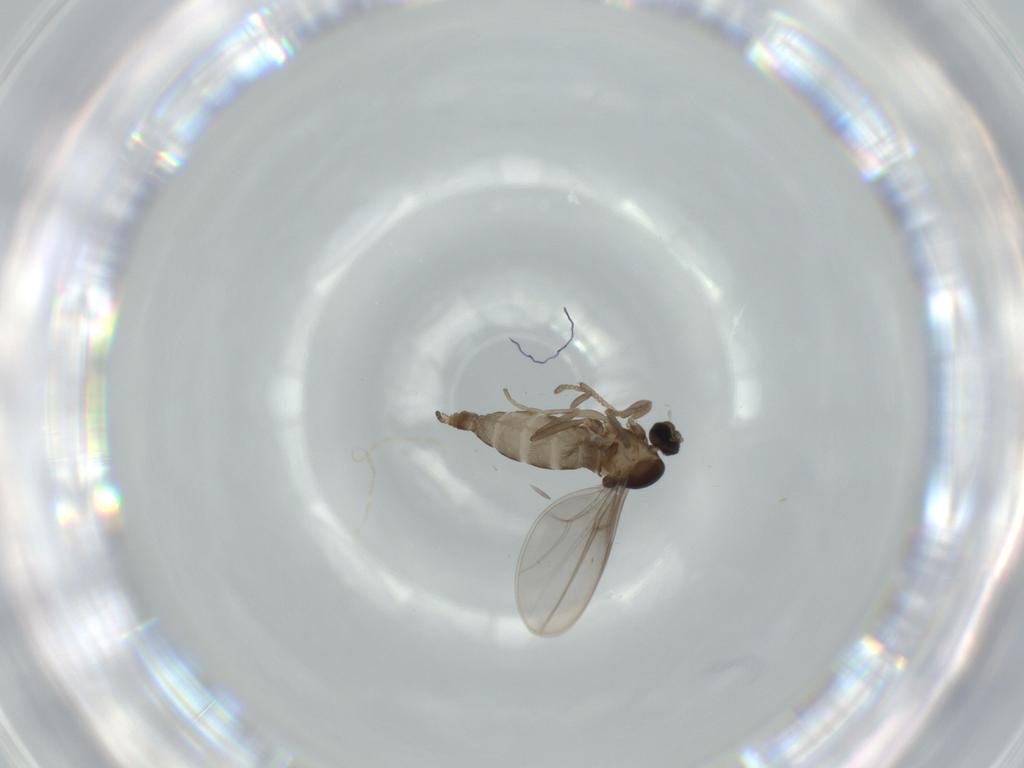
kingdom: Animalia
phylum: Arthropoda
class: Insecta
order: Diptera
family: Cecidomyiidae
